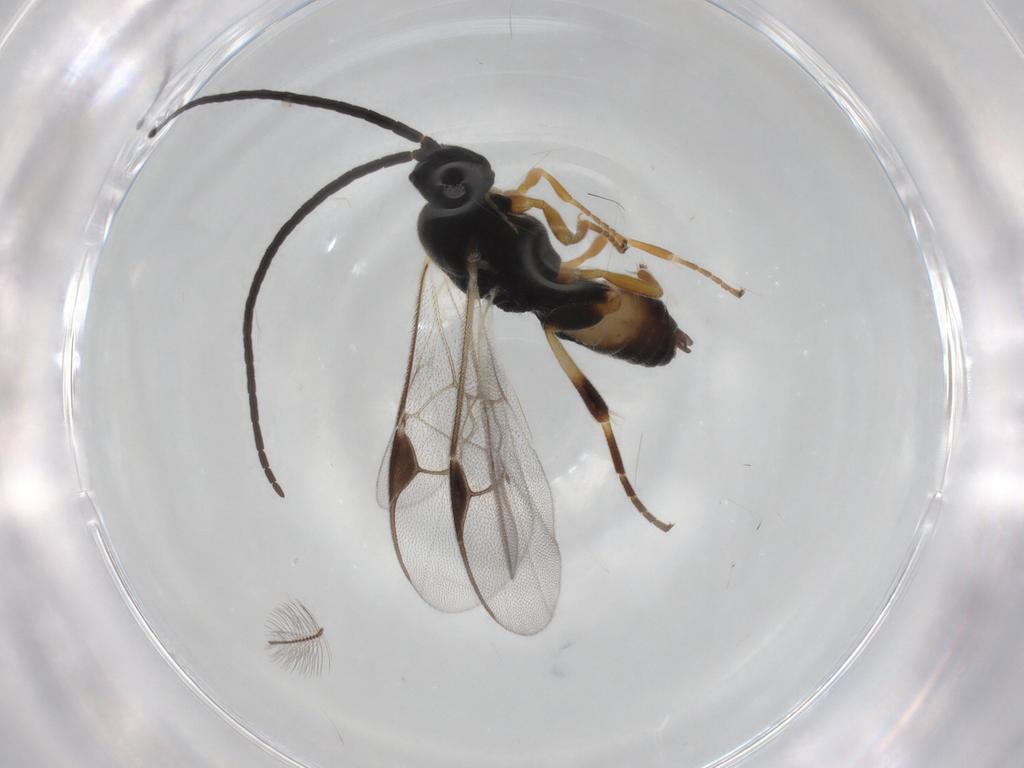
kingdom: Animalia
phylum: Arthropoda
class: Insecta
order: Hymenoptera
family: Braconidae
